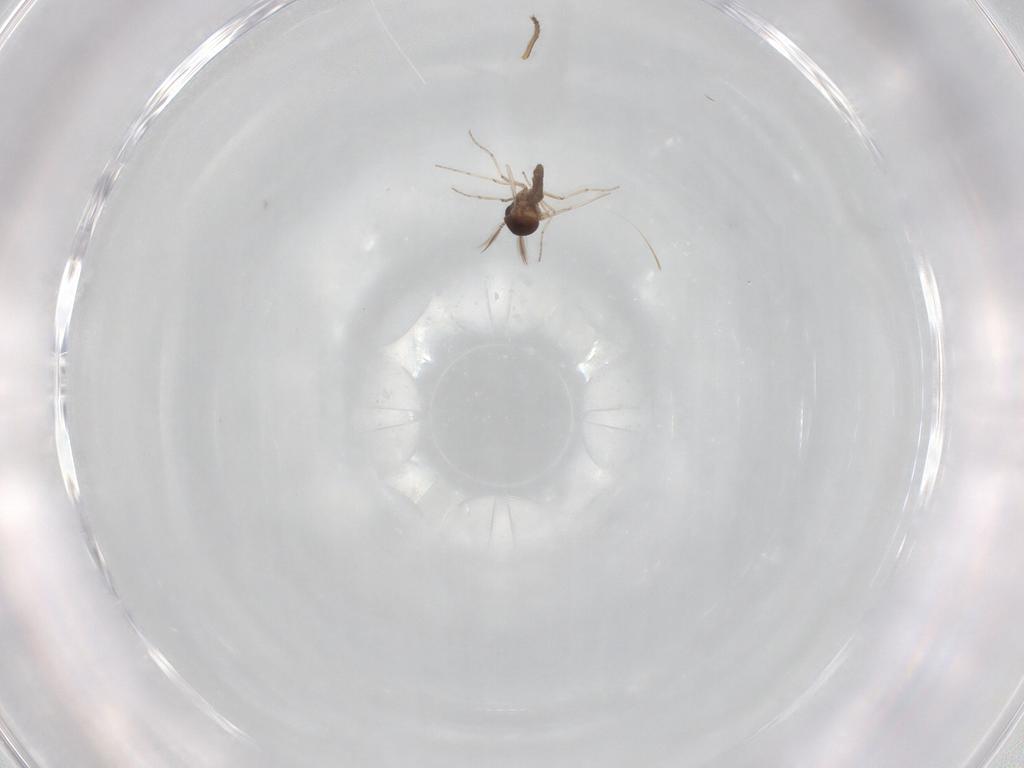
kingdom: Animalia
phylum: Arthropoda
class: Insecta
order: Diptera
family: Ceratopogonidae
